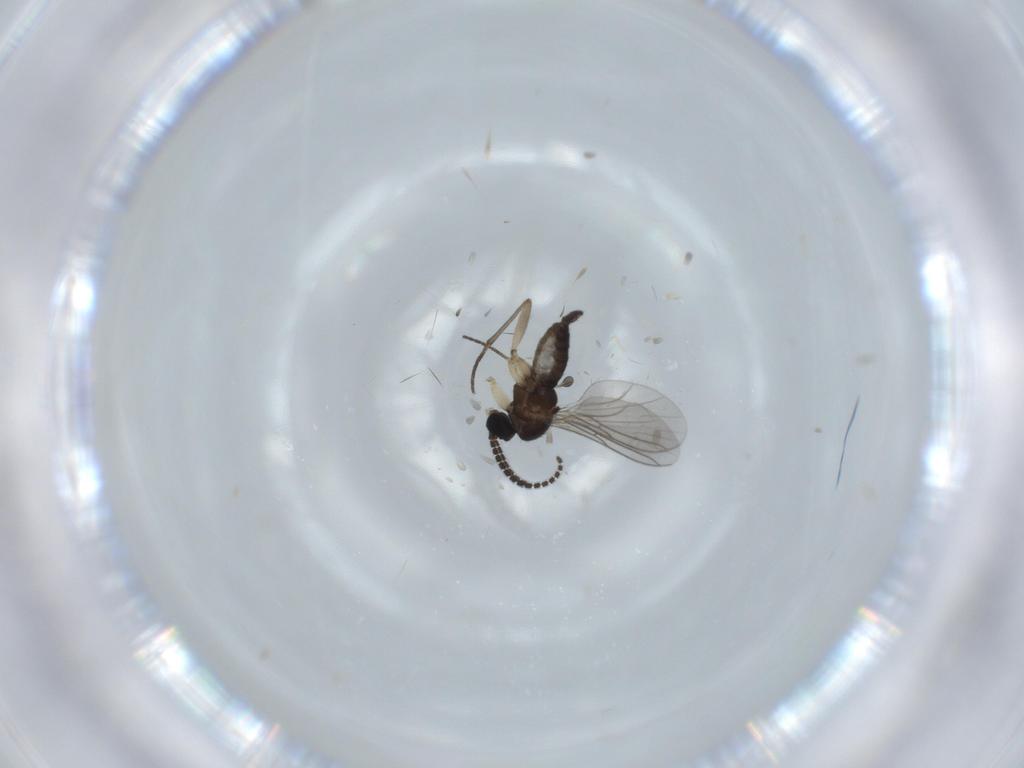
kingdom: Animalia
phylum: Arthropoda
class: Insecta
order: Diptera
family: Sciaridae
